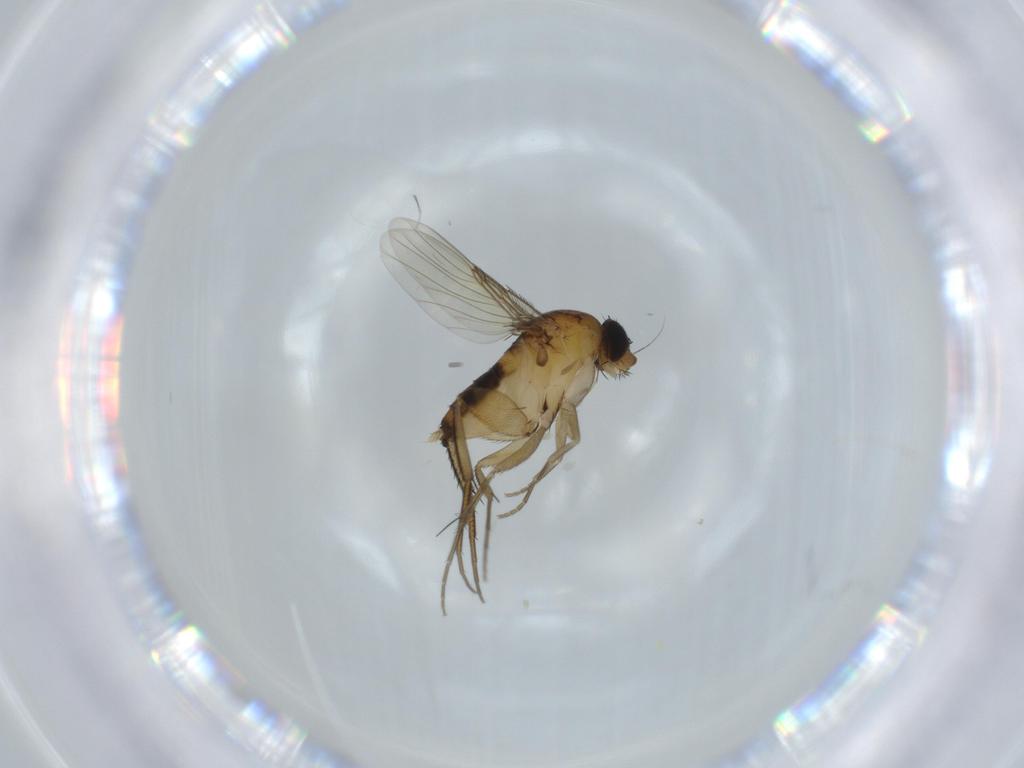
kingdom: Animalia
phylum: Arthropoda
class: Insecta
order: Diptera
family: Phoridae
